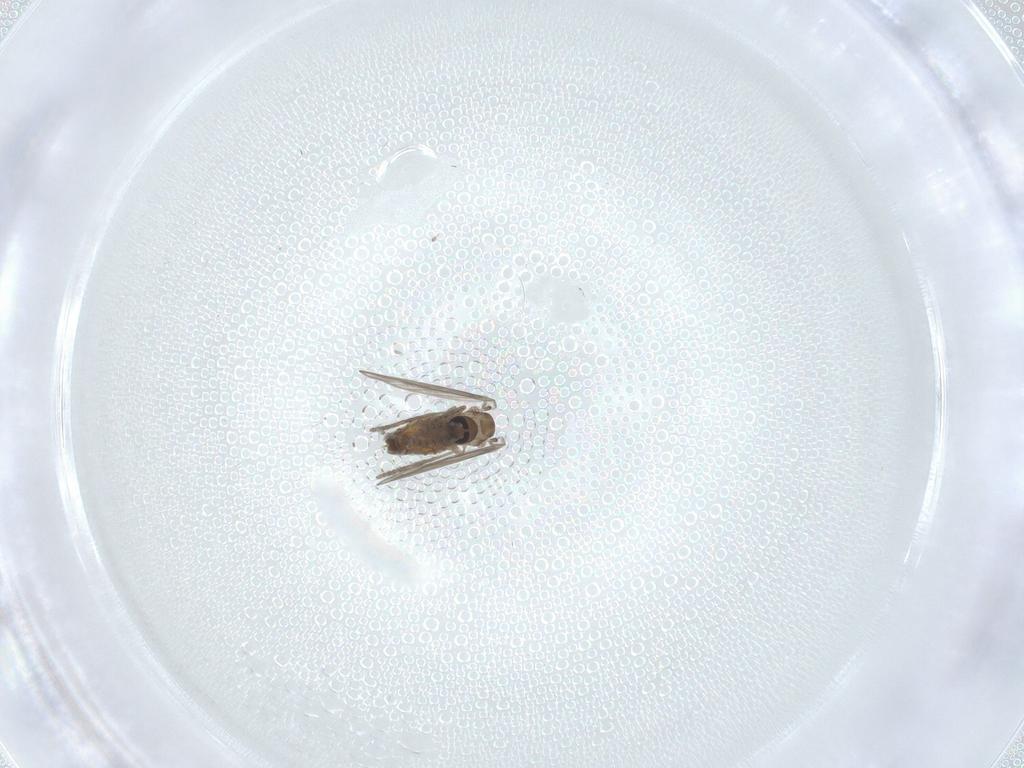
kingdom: Animalia
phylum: Arthropoda
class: Insecta
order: Diptera
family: Psychodidae
